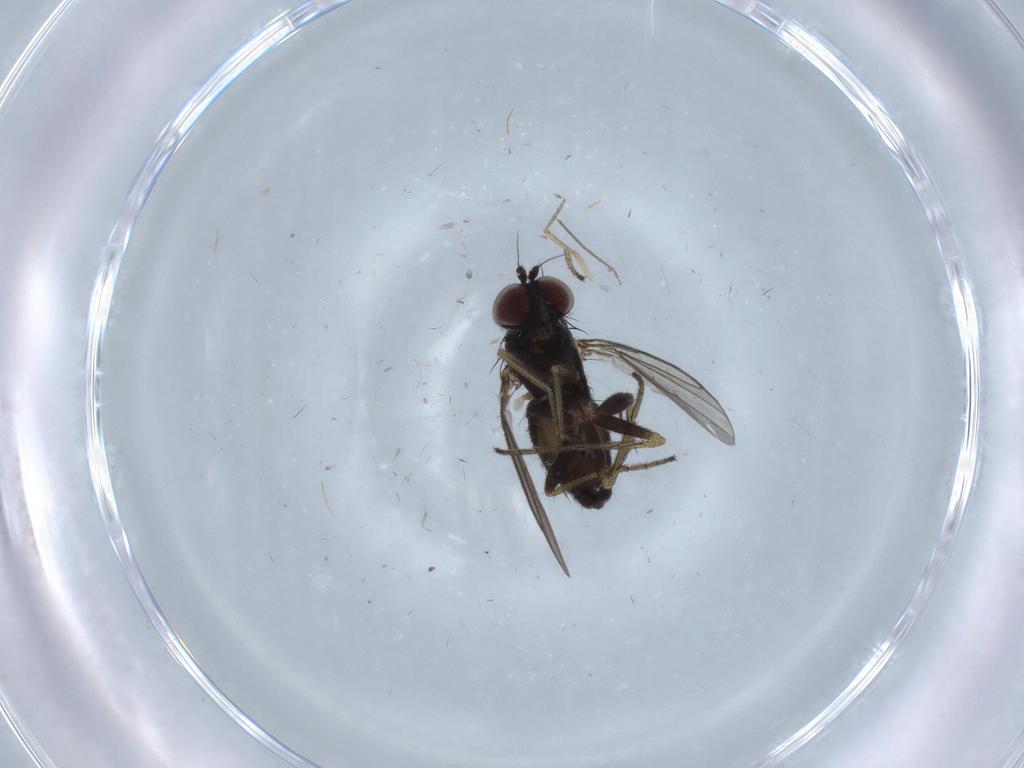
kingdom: Animalia
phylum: Arthropoda
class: Insecta
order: Diptera
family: Dolichopodidae
